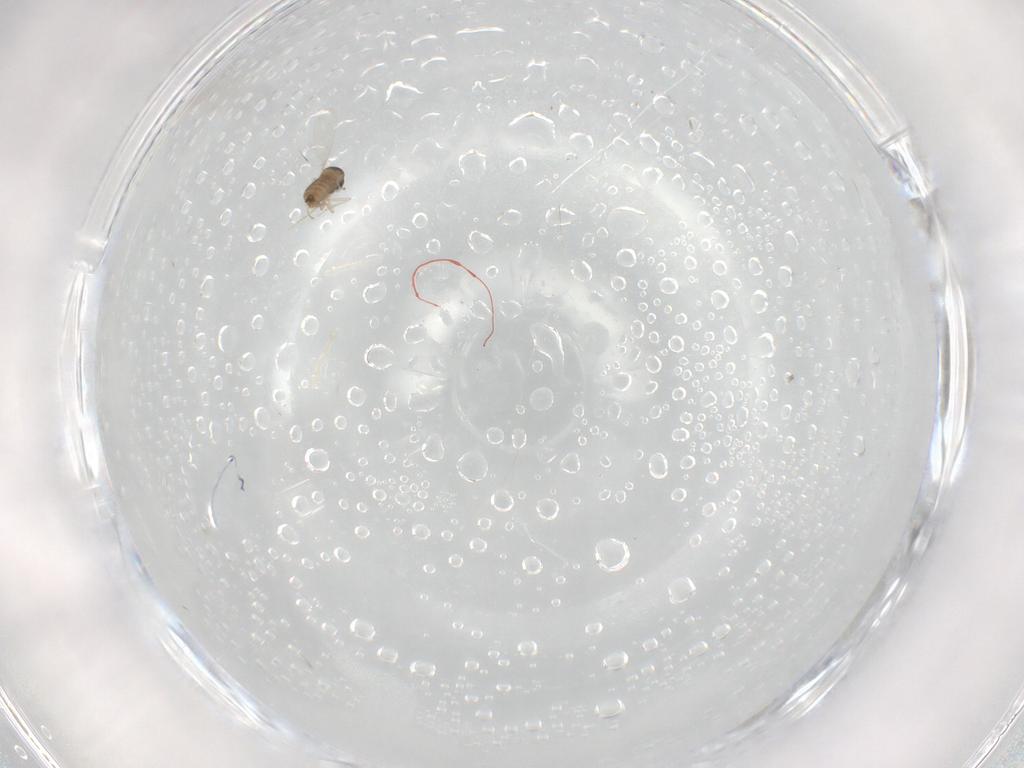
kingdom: Animalia
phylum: Arthropoda
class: Insecta
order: Diptera
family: Cecidomyiidae
